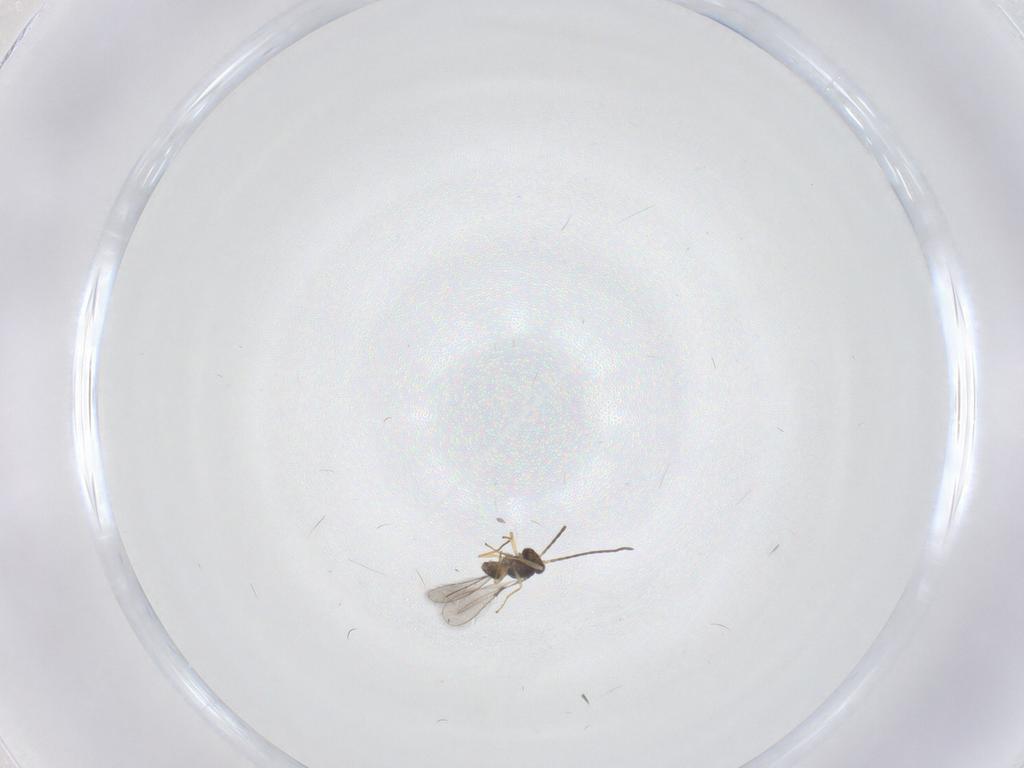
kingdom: Animalia
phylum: Arthropoda
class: Insecta
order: Hymenoptera
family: Mymaridae
